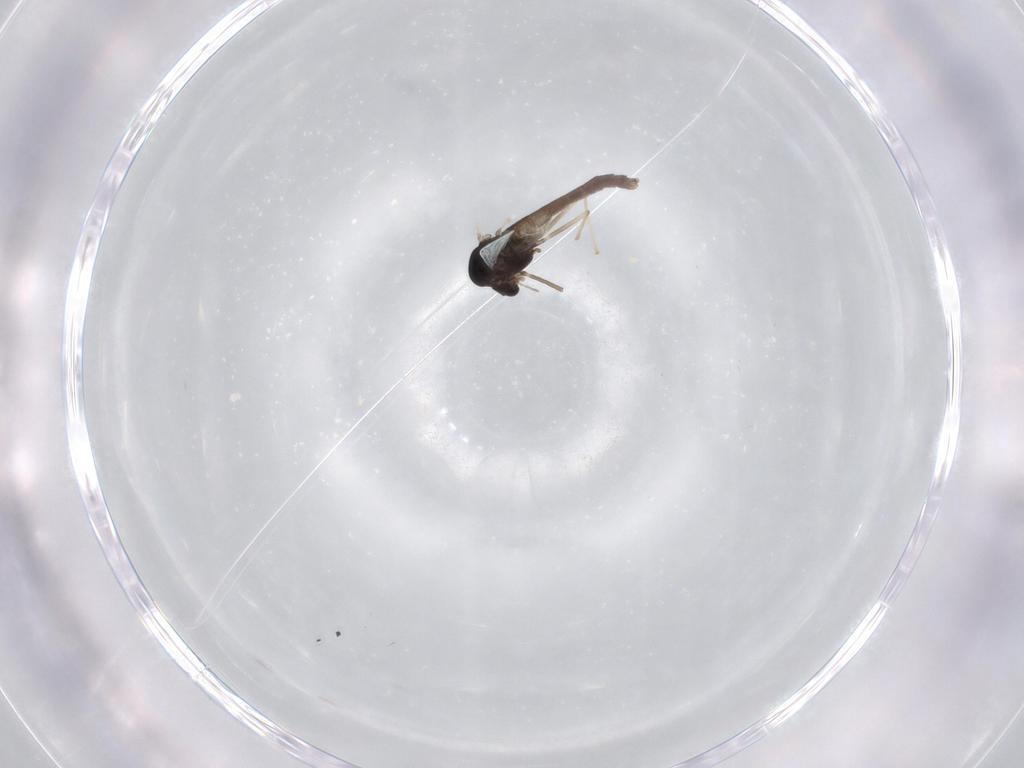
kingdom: Animalia
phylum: Arthropoda
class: Insecta
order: Diptera
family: Chironomidae
